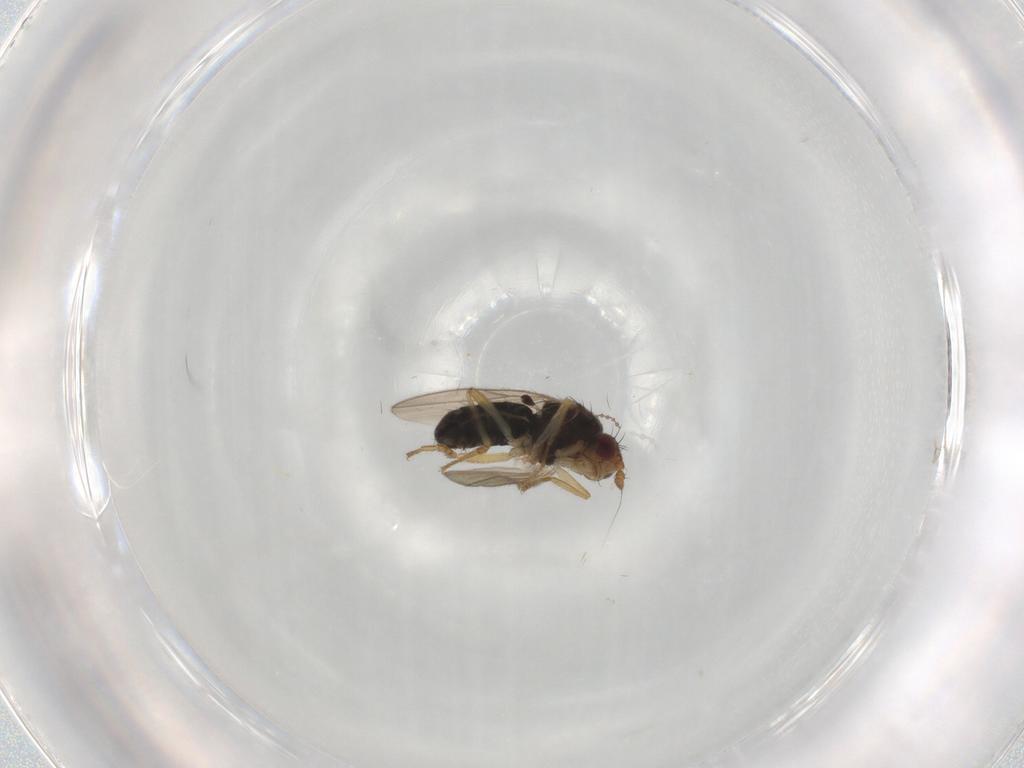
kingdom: Animalia
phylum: Arthropoda
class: Insecta
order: Diptera
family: Sphaeroceridae
